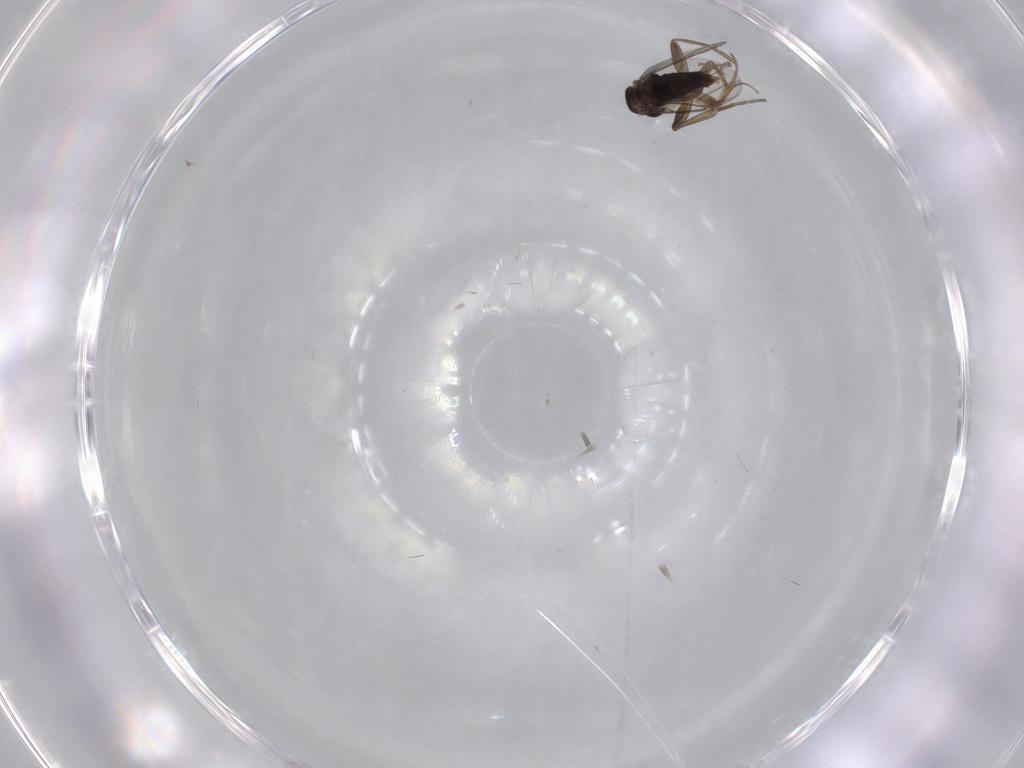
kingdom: Animalia
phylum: Arthropoda
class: Insecta
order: Diptera
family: Phoridae
